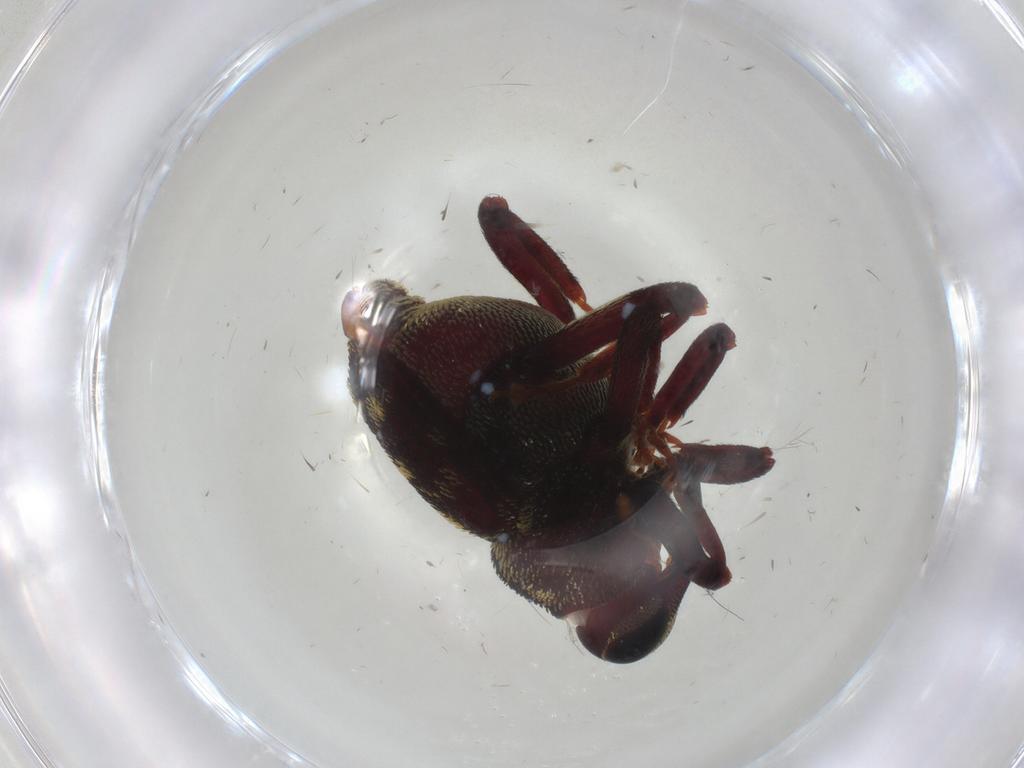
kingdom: Animalia
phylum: Arthropoda
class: Insecta
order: Coleoptera
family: Curculionidae
